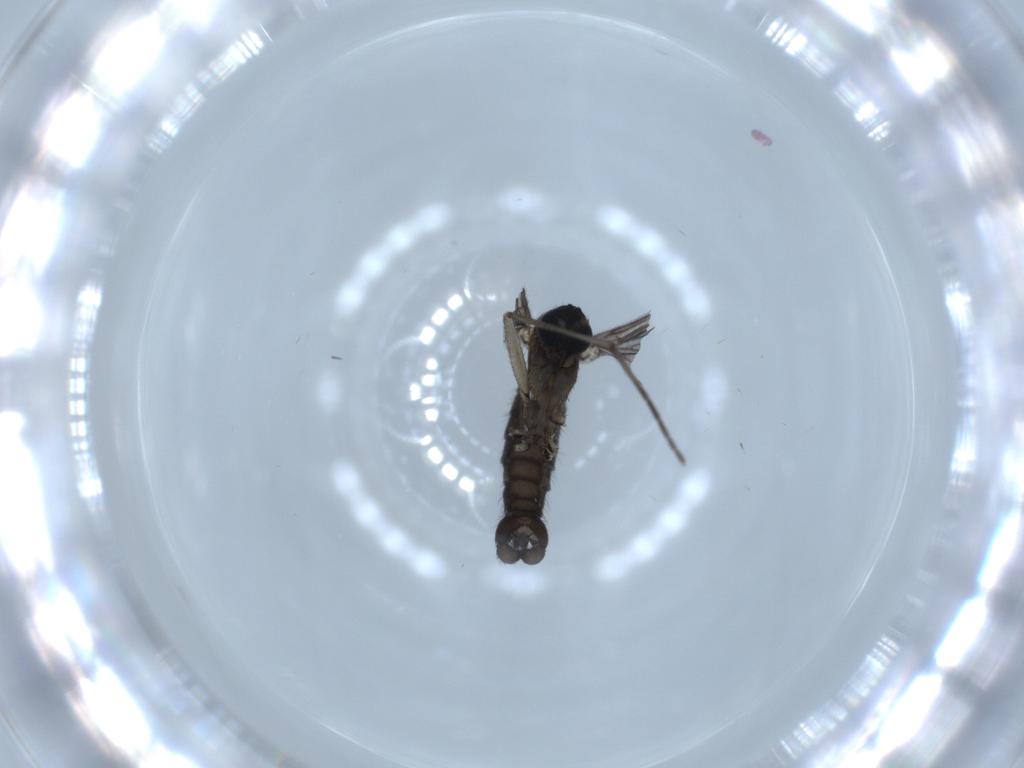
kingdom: Animalia
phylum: Arthropoda
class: Insecta
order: Diptera
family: Sciaridae
